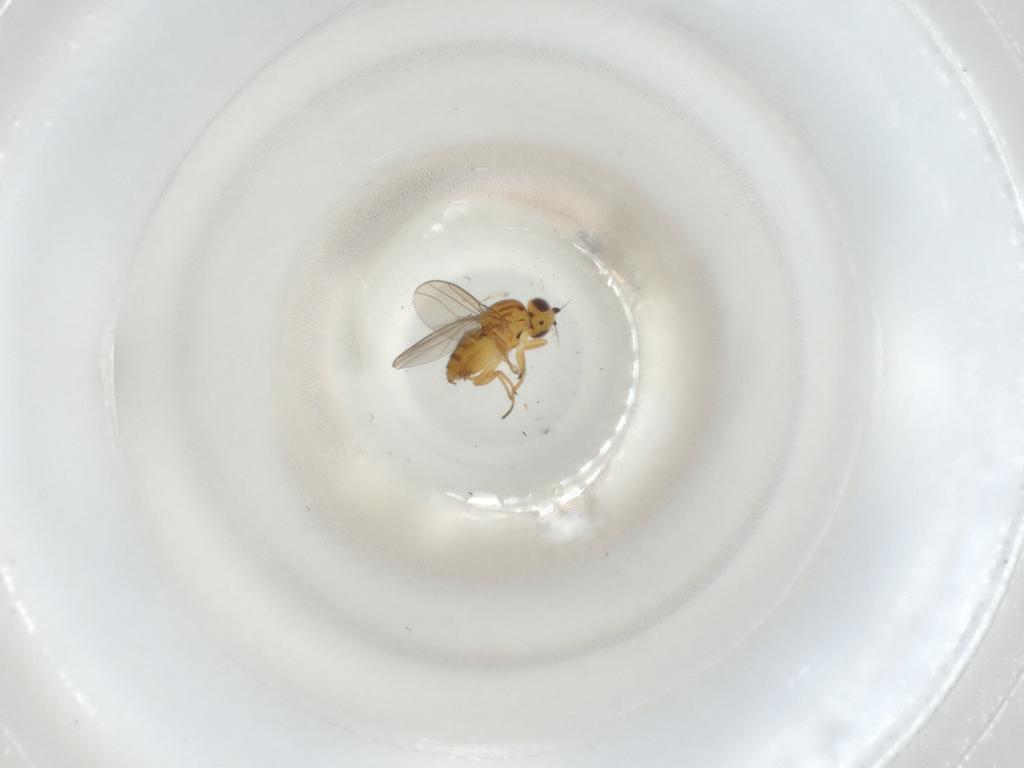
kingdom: Animalia
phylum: Arthropoda
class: Insecta
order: Diptera
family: Chloropidae
